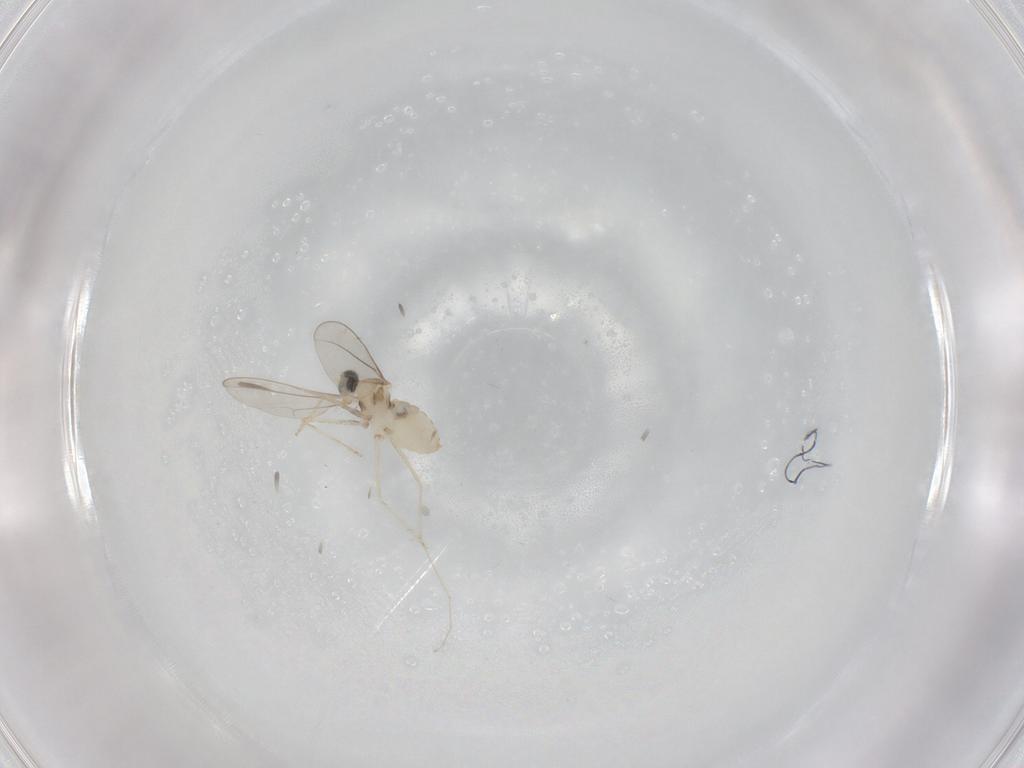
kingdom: Animalia
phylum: Arthropoda
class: Insecta
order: Diptera
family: Cecidomyiidae
